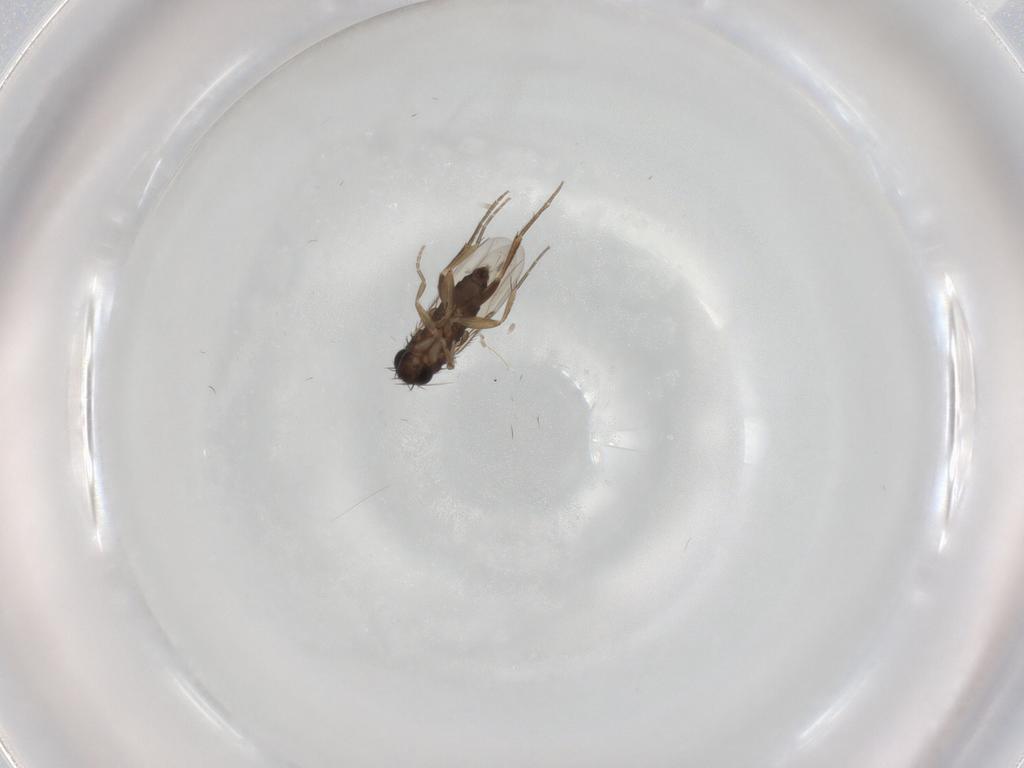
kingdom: Animalia
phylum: Arthropoda
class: Insecta
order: Diptera
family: Phoridae
